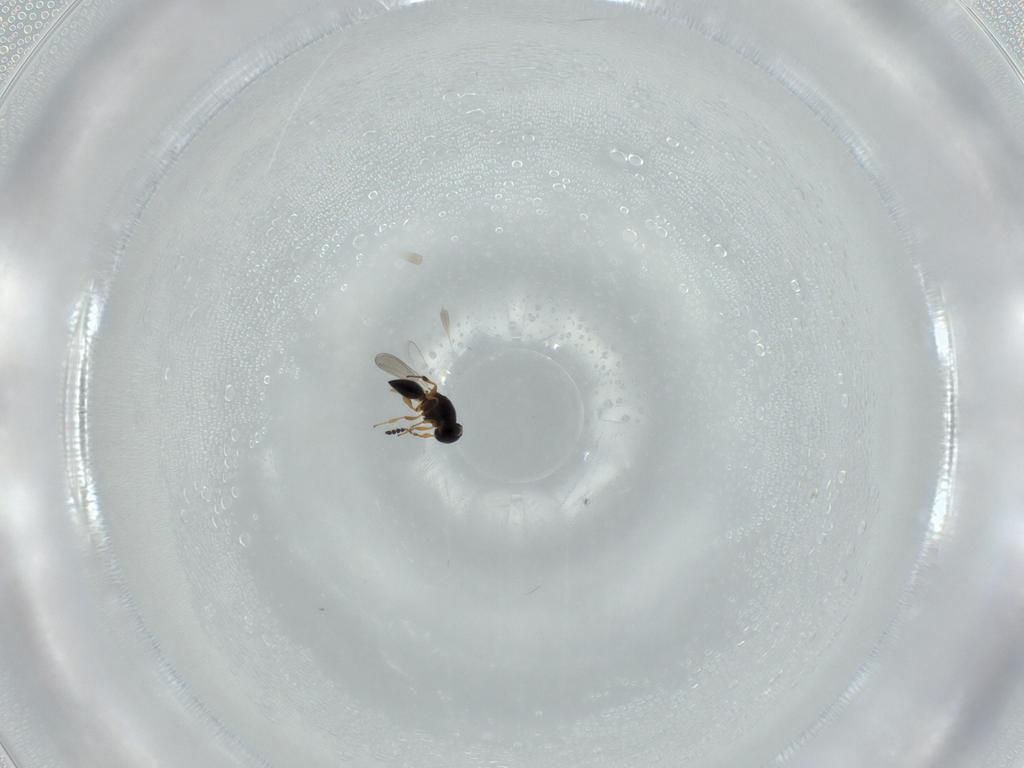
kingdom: Animalia
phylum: Arthropoda
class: Insecta
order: Hymenoptera
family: Platygastridae
